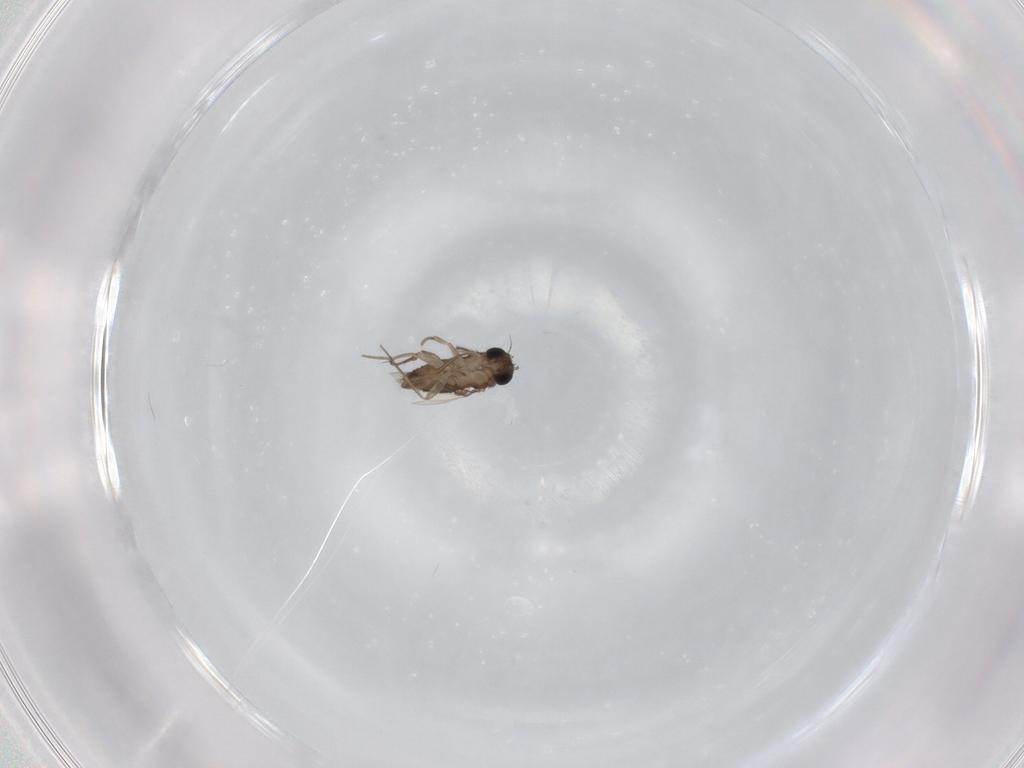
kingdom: Animalia
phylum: Arthropoda
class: Insecta
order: Diptera
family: Phoridae
